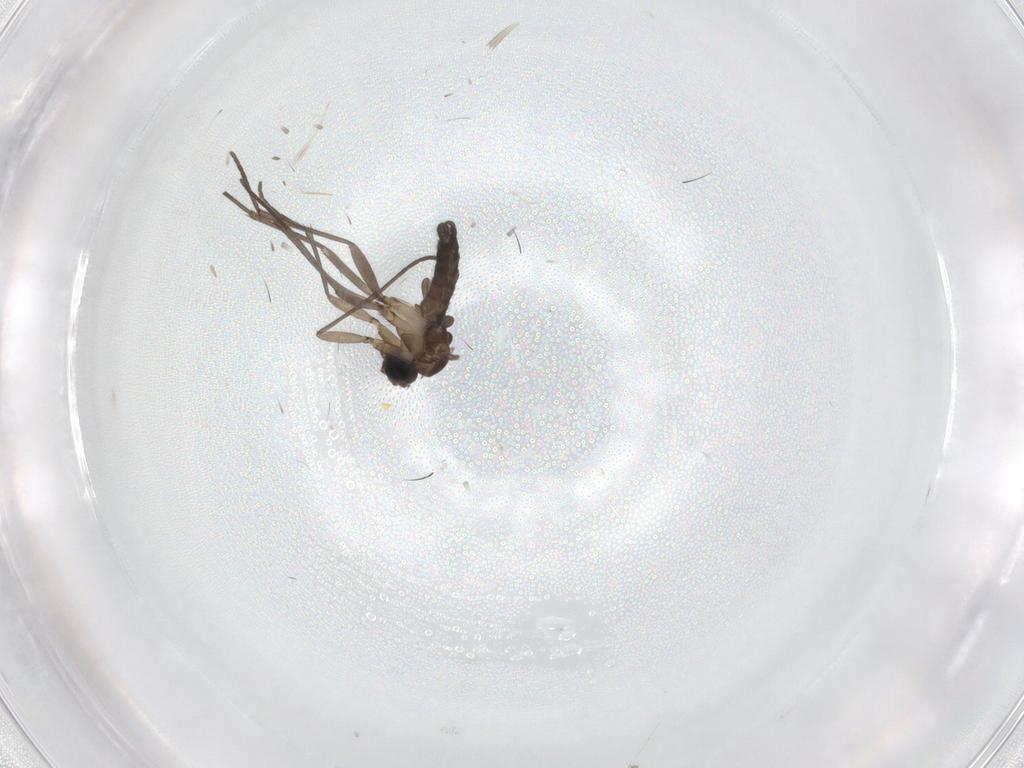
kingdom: Animalia
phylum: Arthropoda
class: Insecta
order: Diptera
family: Sciaridae
